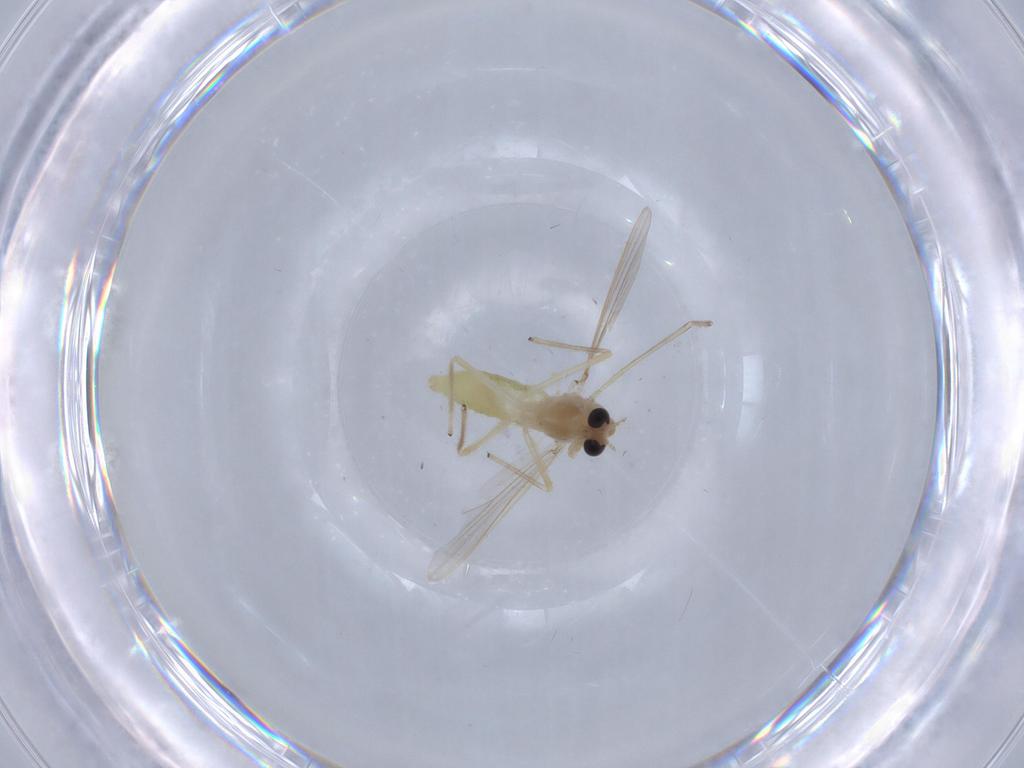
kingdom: Animalia
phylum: Arthropoda
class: Insecta
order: Diptera
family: Chironomidae
